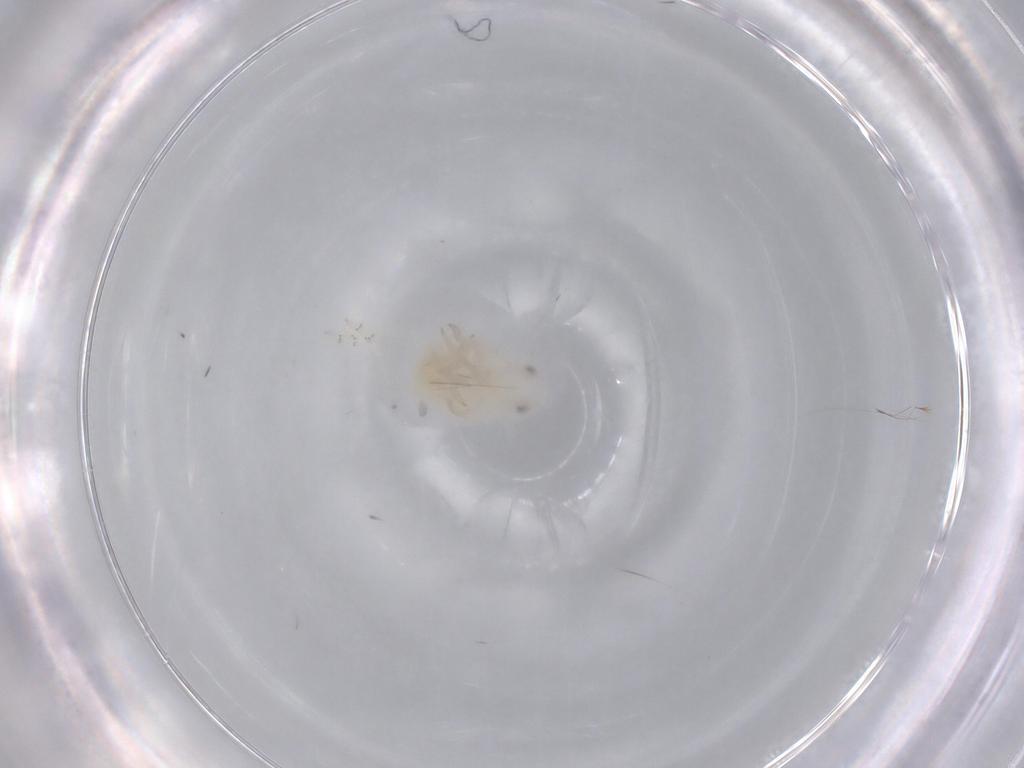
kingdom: Animalia
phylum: Arthropoda
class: Insecta
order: Hemiptera
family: Flatidae
